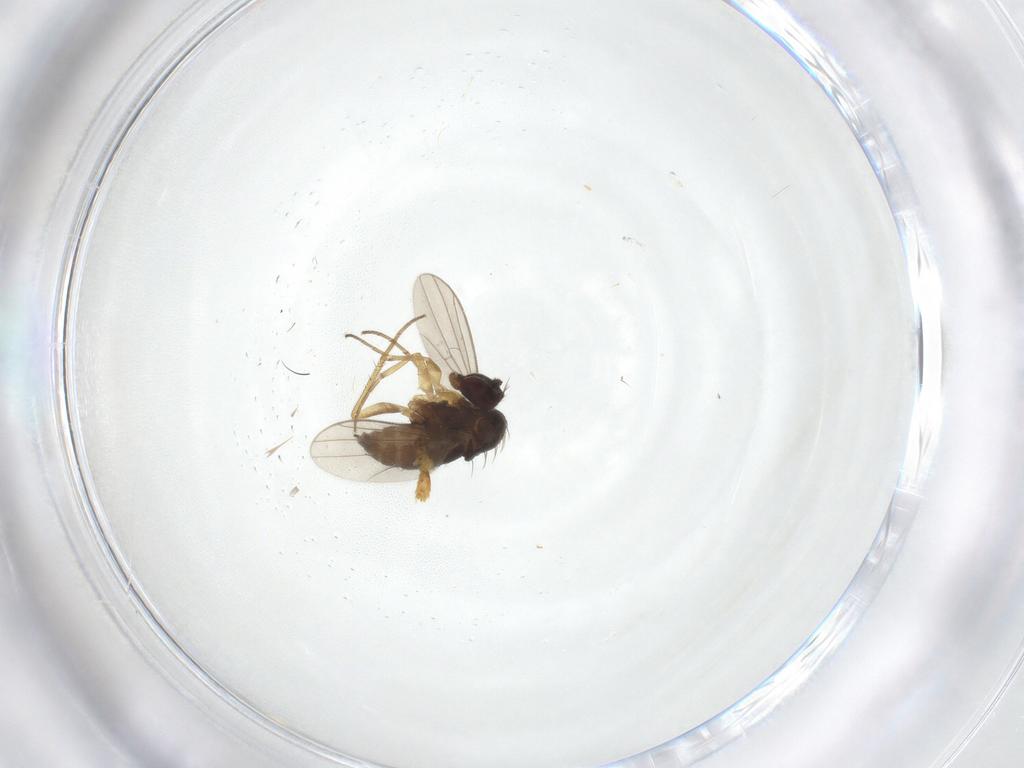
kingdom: Animalia
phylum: Arthropoda
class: Insecta
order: Diptera
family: Dolichopodidae
